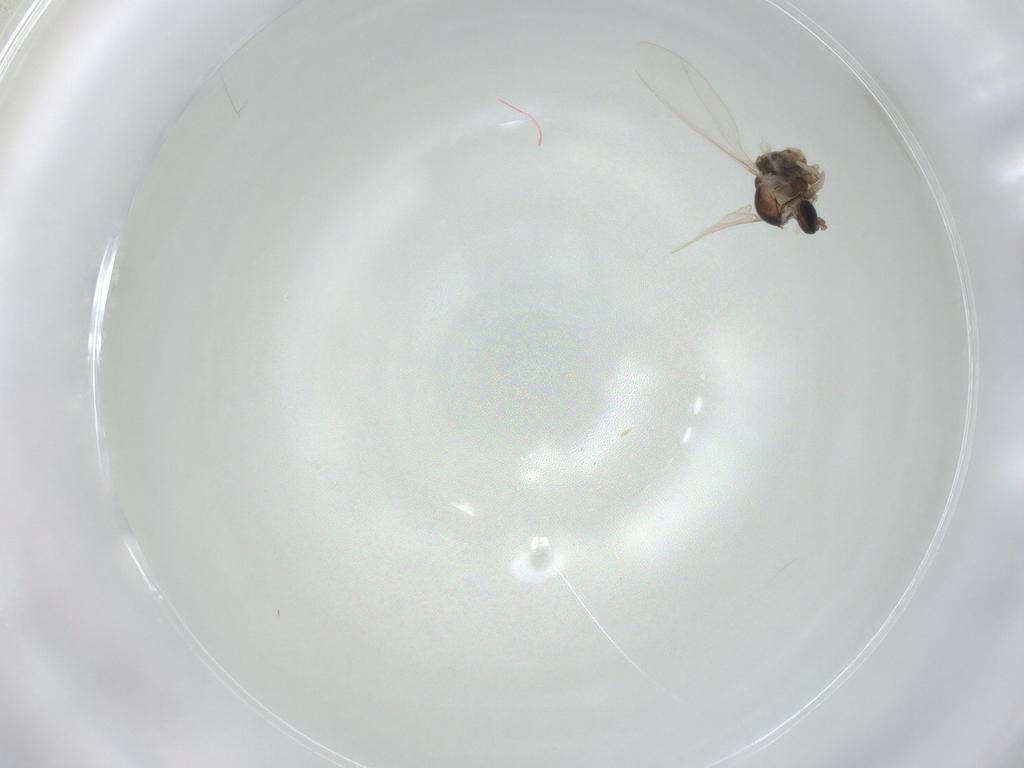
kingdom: Animalia
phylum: Arthropoda
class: Insecta
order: Diptera
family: Cecidomyiidae
